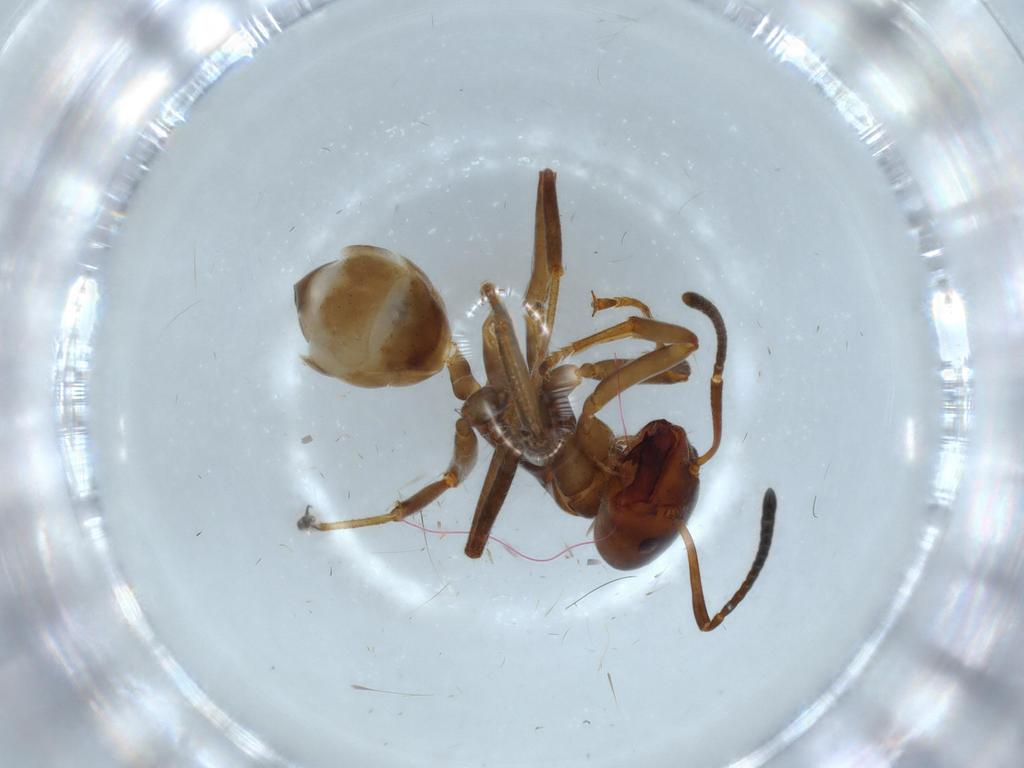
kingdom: Animalia
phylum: Arthropoda
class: Insecta
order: Hymenoptera
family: Formicidae
